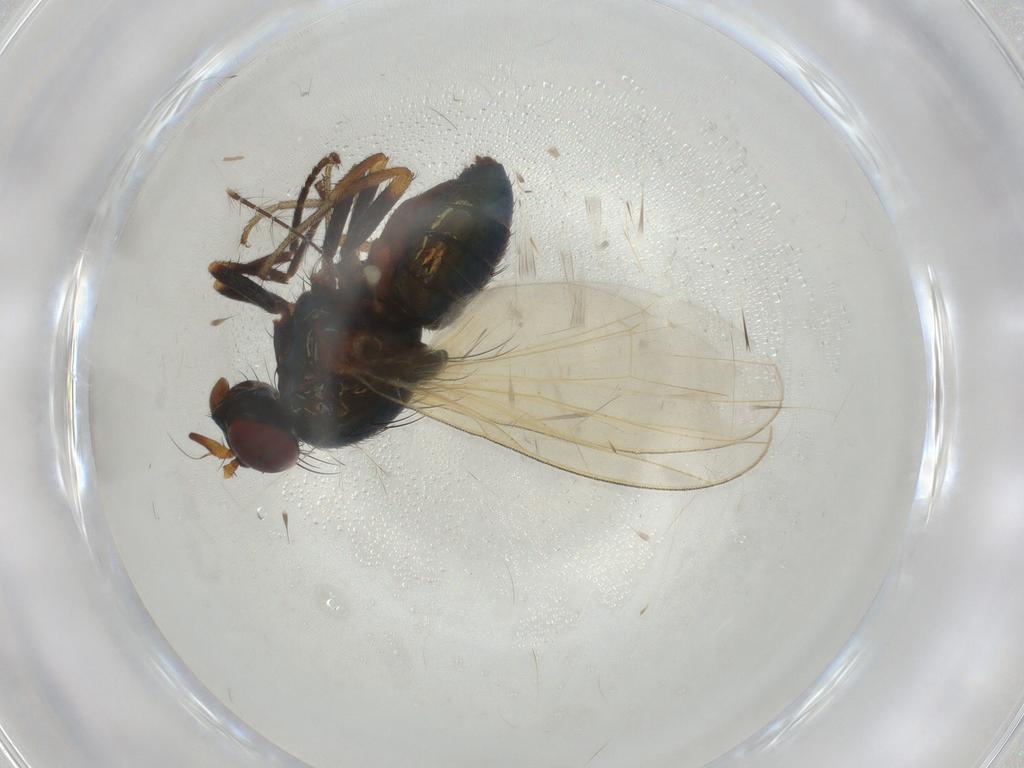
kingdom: Animalia
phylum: Arthropoda
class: Insecta
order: Diptera
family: Lauxaniidae
